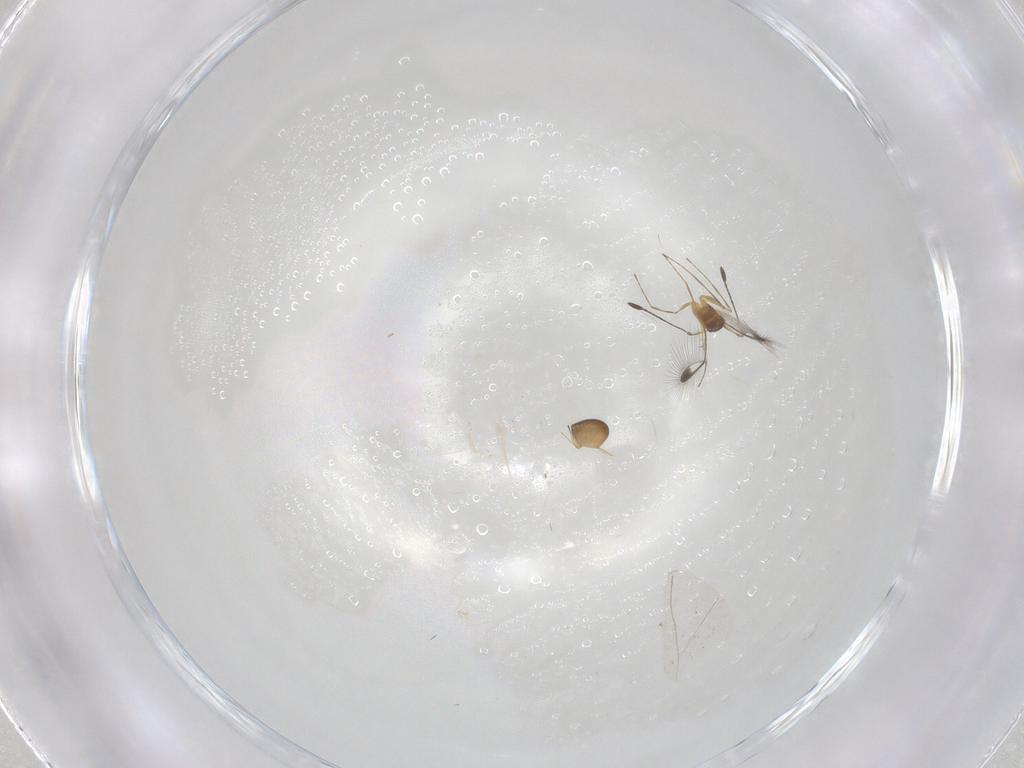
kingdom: Animalia
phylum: Arthropoda
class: Insecta
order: Hymenoptera
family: Mymaridae
